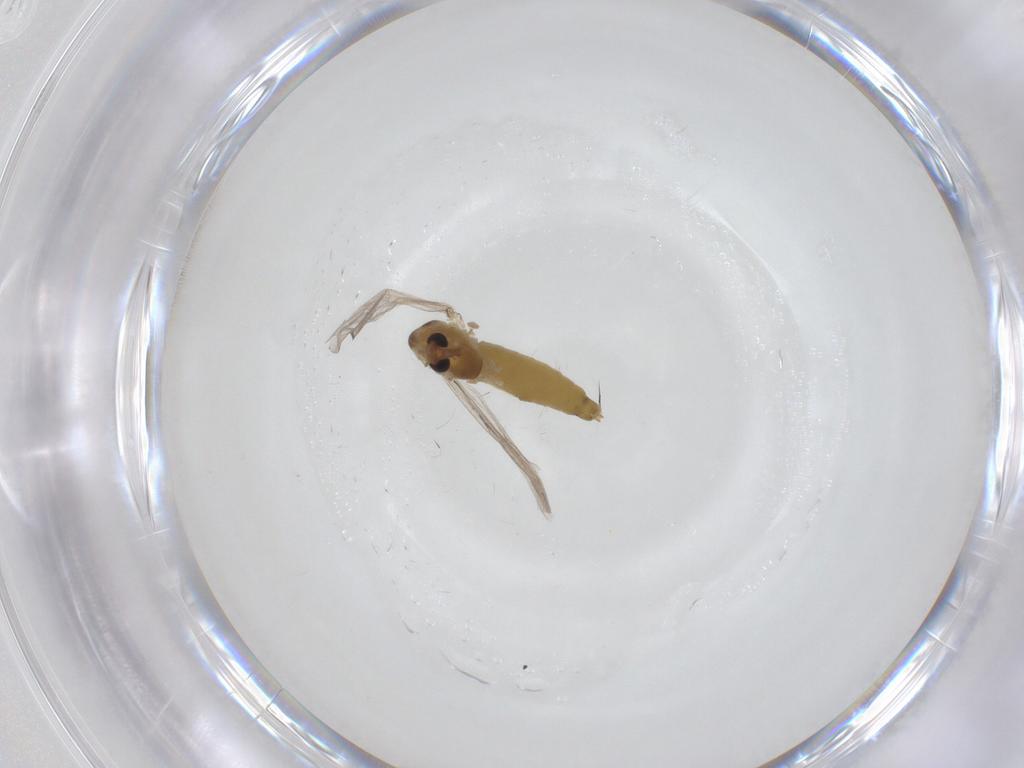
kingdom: Animalia
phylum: Arthropoda
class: Insecta
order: Diptera
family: Chironomidae
